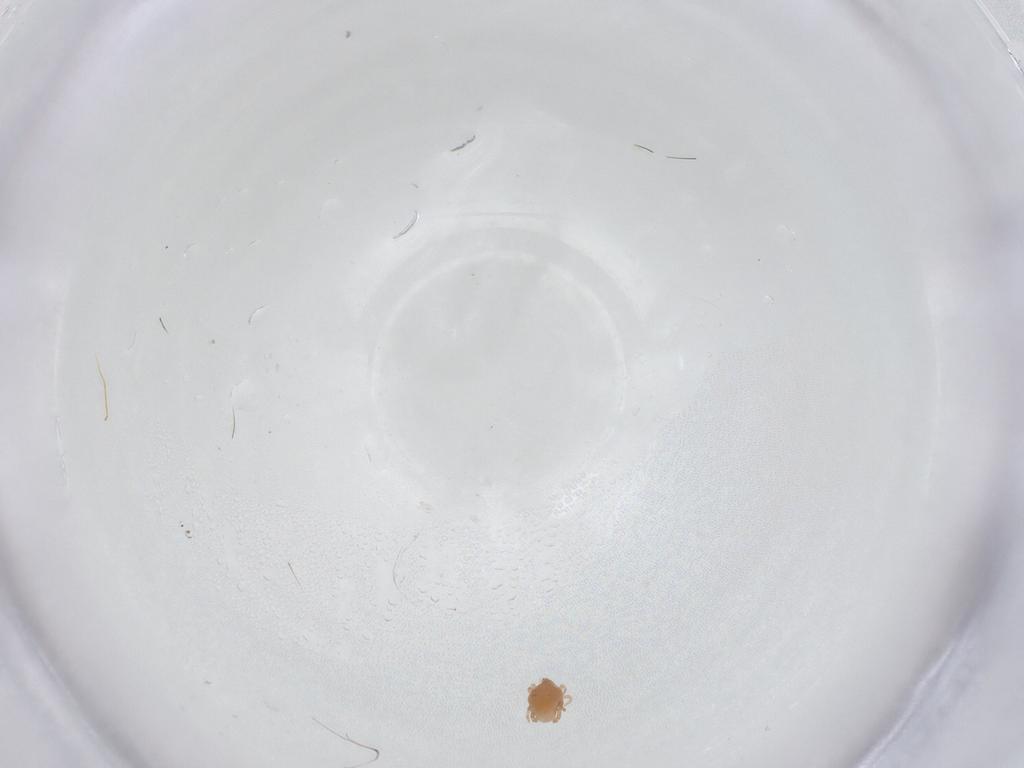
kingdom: Animalia
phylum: Arthropoda
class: Arachnida
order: Trombidiformes
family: Cunaxidae
